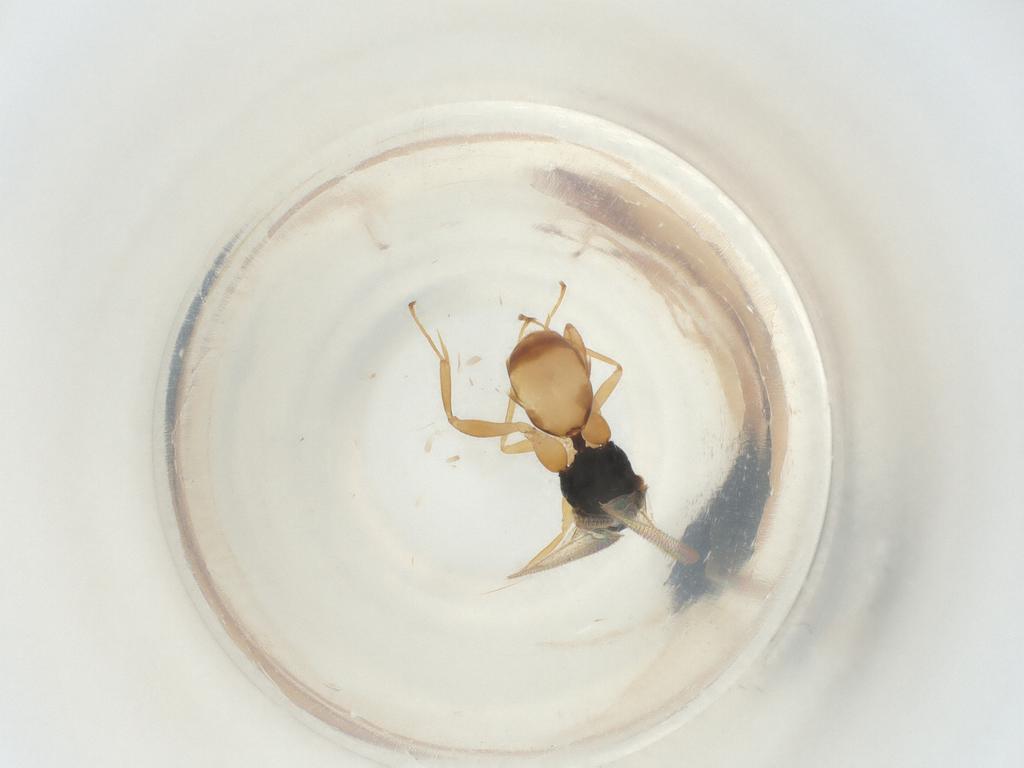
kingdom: Animalia
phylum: Arthropoda
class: Insecta
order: Hymenoptera
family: Eulophidae
